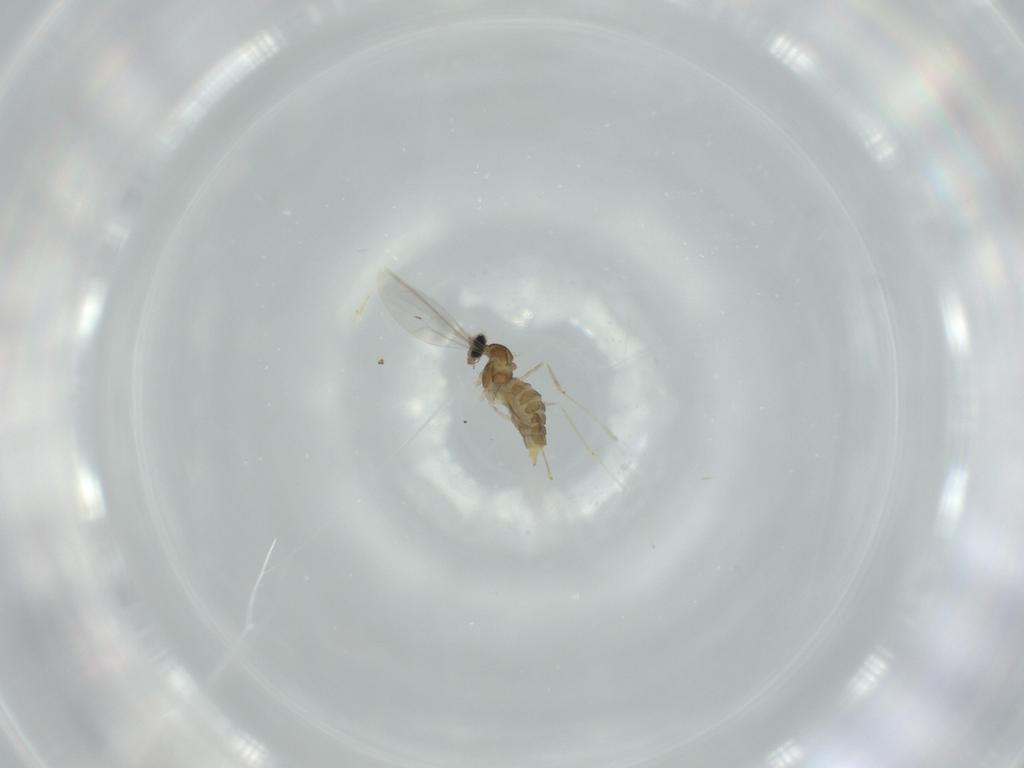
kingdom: Animalia
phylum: Arthropoda
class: Insecta
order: Diptera
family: Cecidomyiidae
